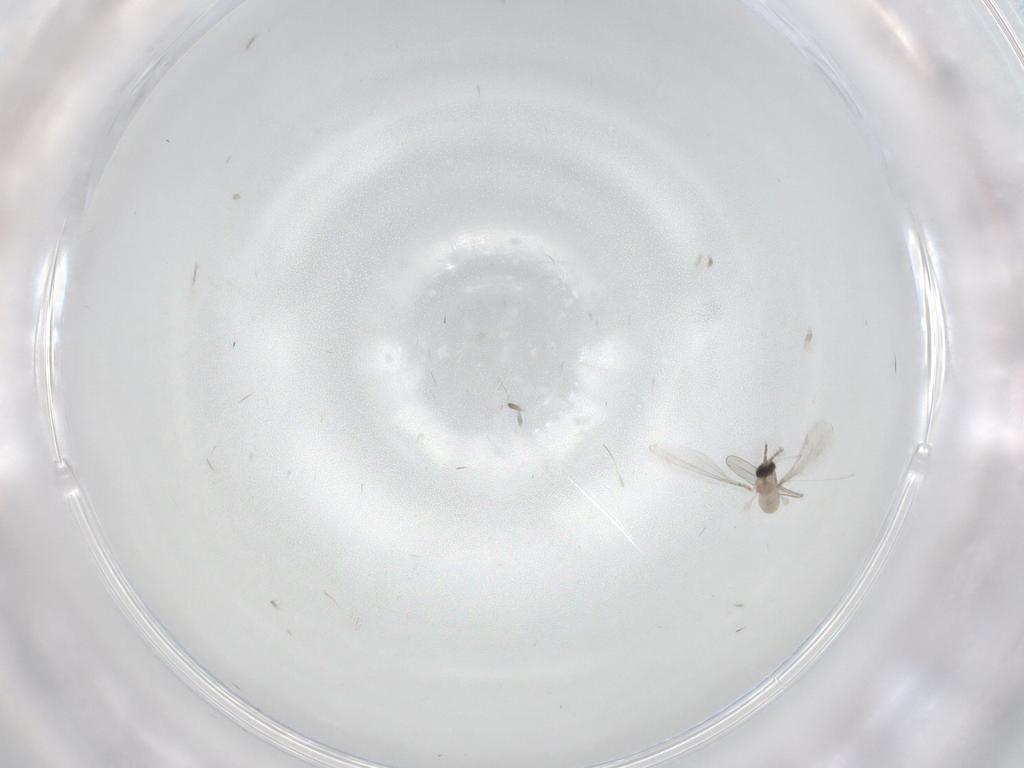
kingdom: Animalia
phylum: Arthropoda
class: Insecta
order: Diptera
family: Cecidomyiidae
